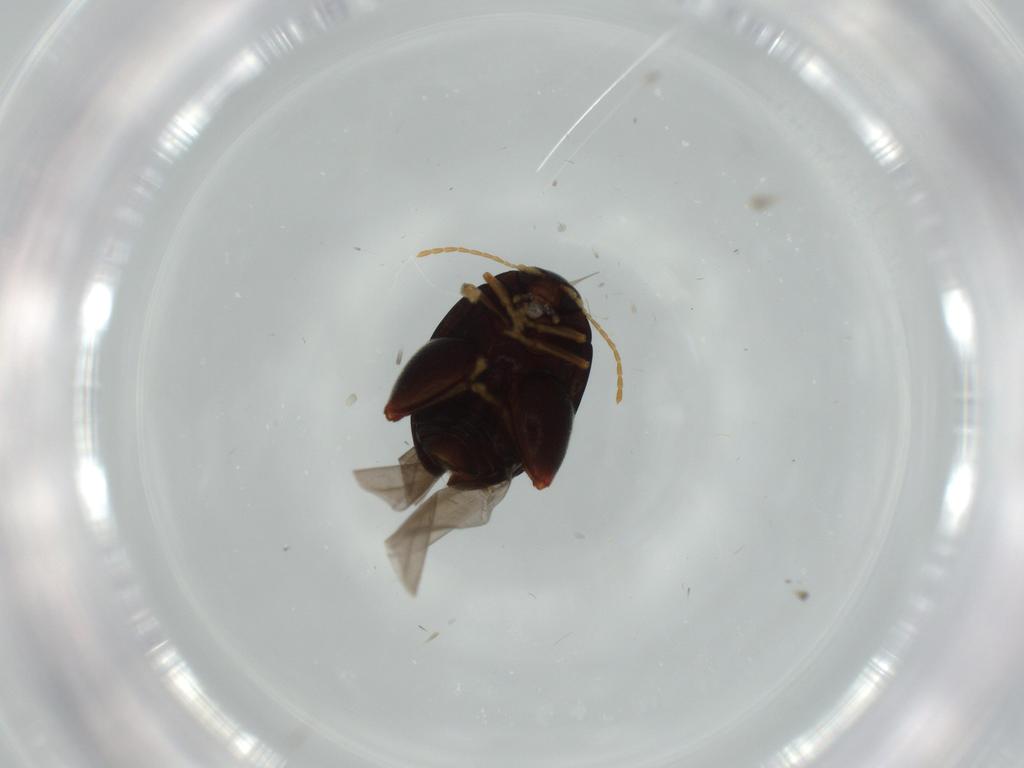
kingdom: Animalia
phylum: Arthropoda
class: Insecta
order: Coleoptera
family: Chrysomelidae
